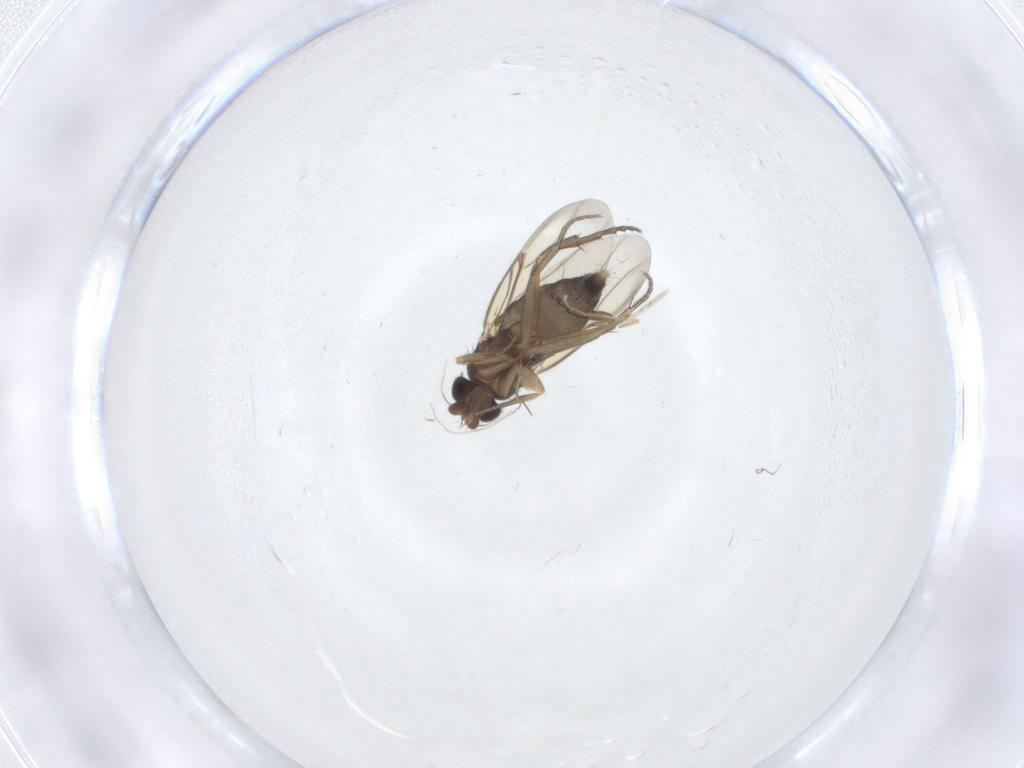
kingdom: Animalia
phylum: Arthropoda
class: Insecta
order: Diptera
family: Phoridae
